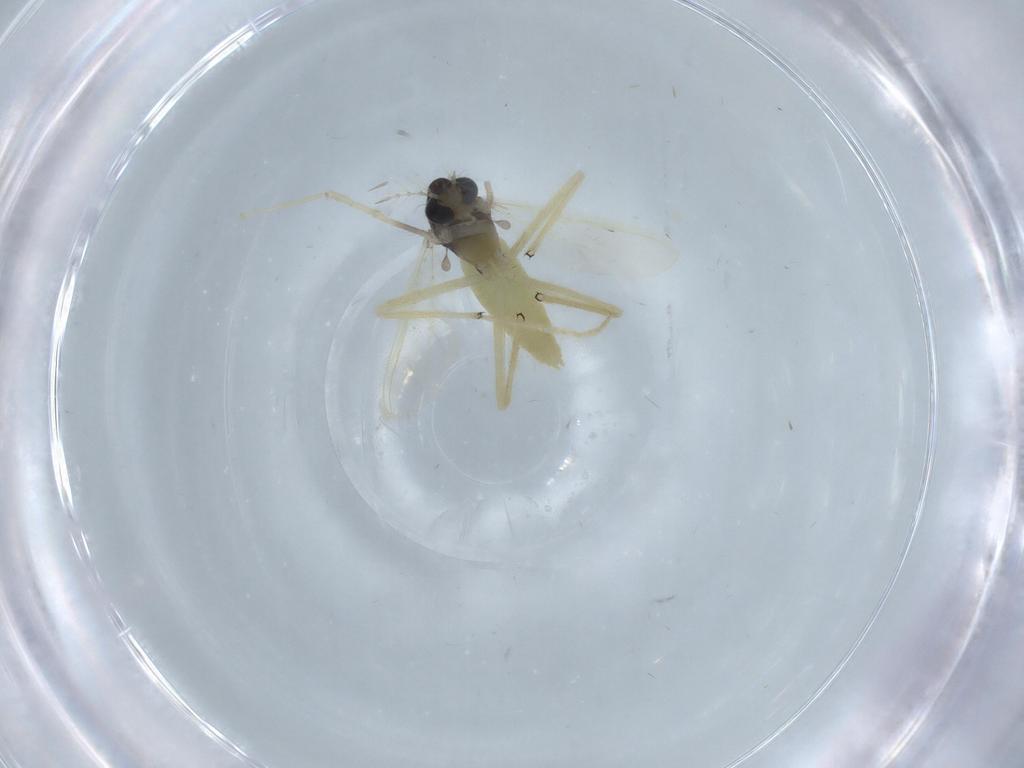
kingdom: Animalia
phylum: Arthropoda
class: Insecta
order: Diptera
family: Chironomidae
